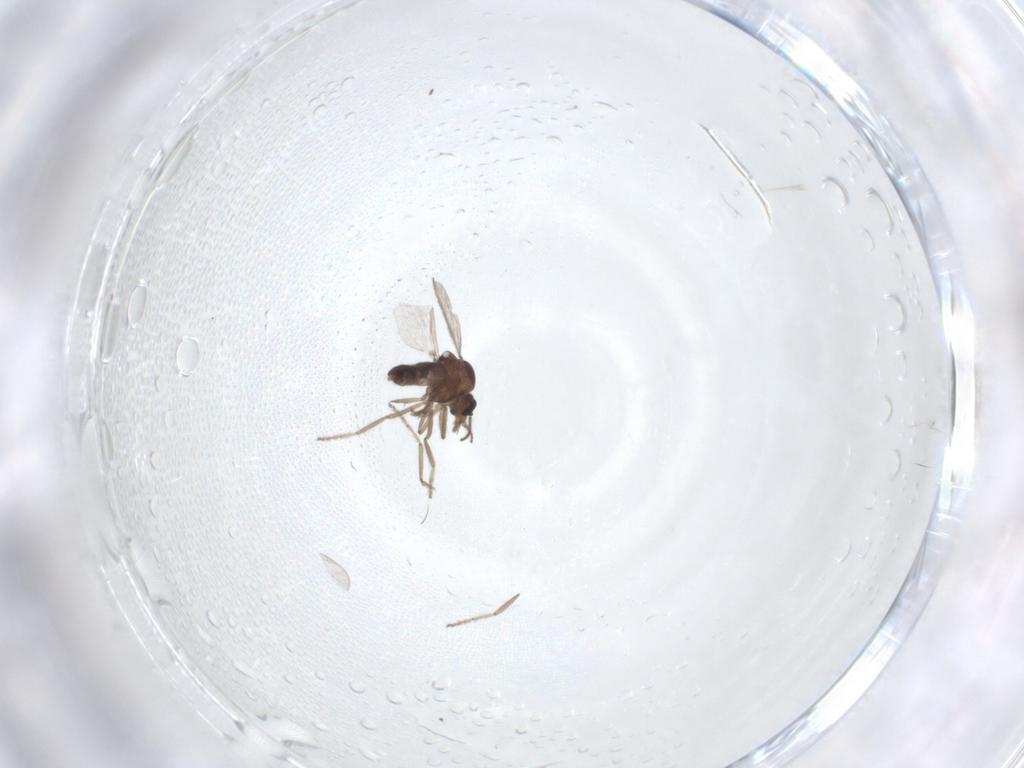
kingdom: Animalia
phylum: Arthropoda
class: Insecta
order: Diptera
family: Ceratopogonidae
